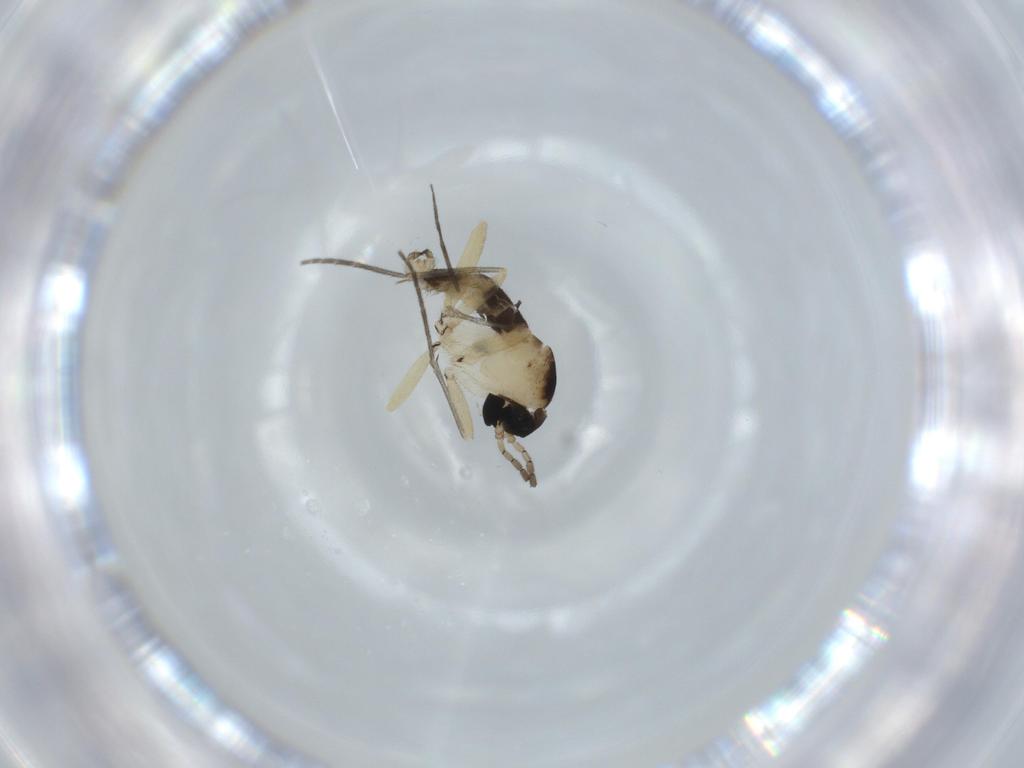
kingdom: Animalia
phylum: Arthropoda
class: Insecta
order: Diptera
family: Sciaridae
